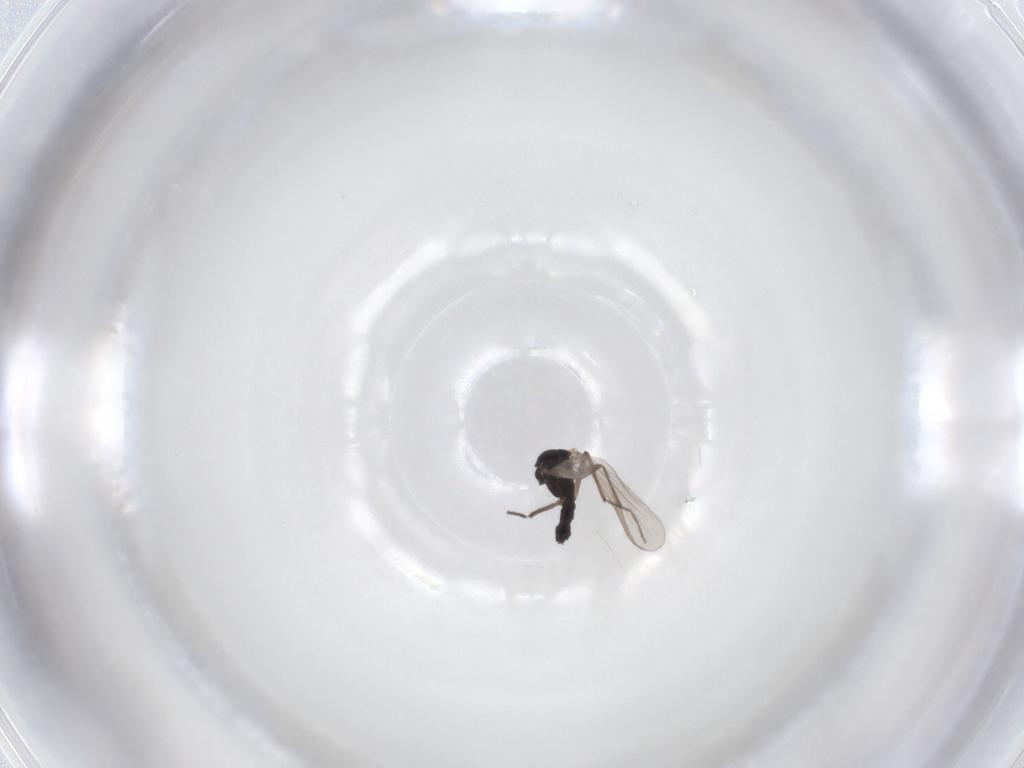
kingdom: Animalia
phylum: Arthropoda
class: Insecta
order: Diptera
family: Chironomidae
